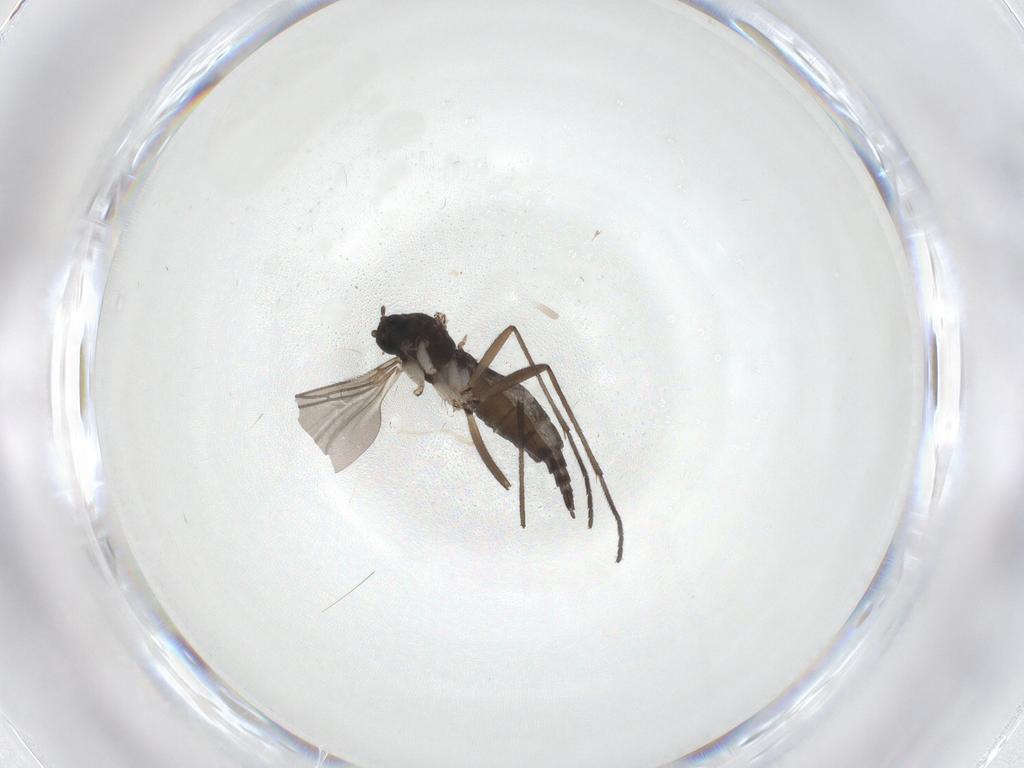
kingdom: Animalia
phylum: Arthropoda
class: Insecta
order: Diptera
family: Sciaridae
